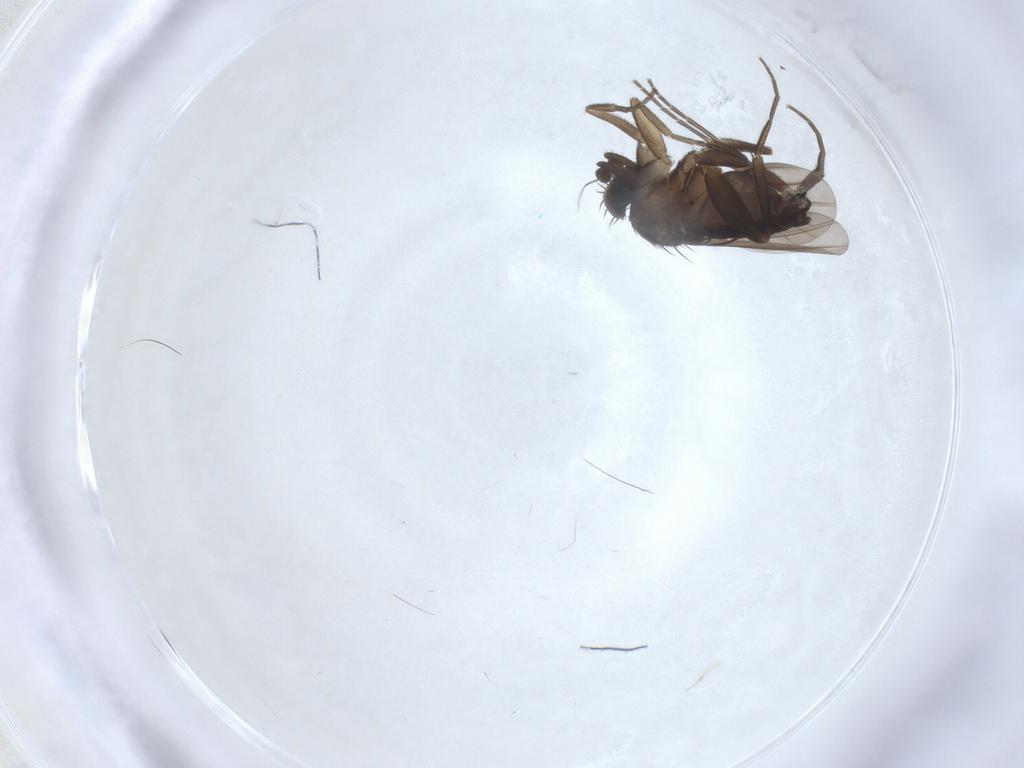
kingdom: Animalia
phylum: Arthropoda
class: Insecta
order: Diptera
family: Phoridae
